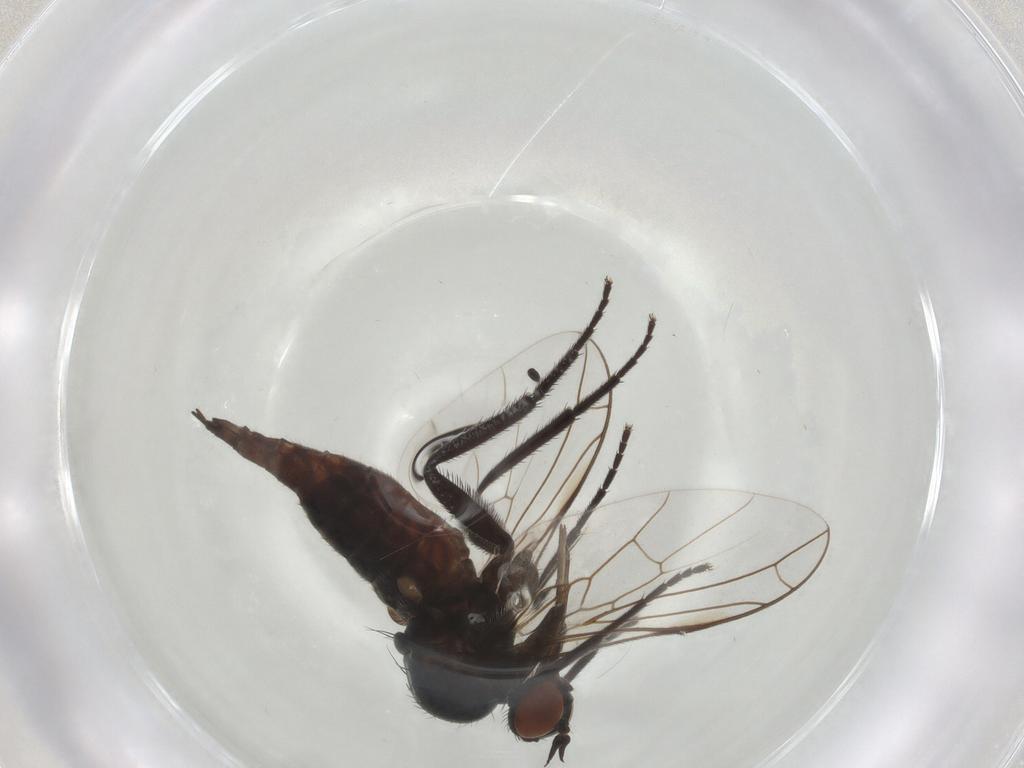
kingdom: Animalia
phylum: Arthropoda
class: Insecta
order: Diptera
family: Empididae
